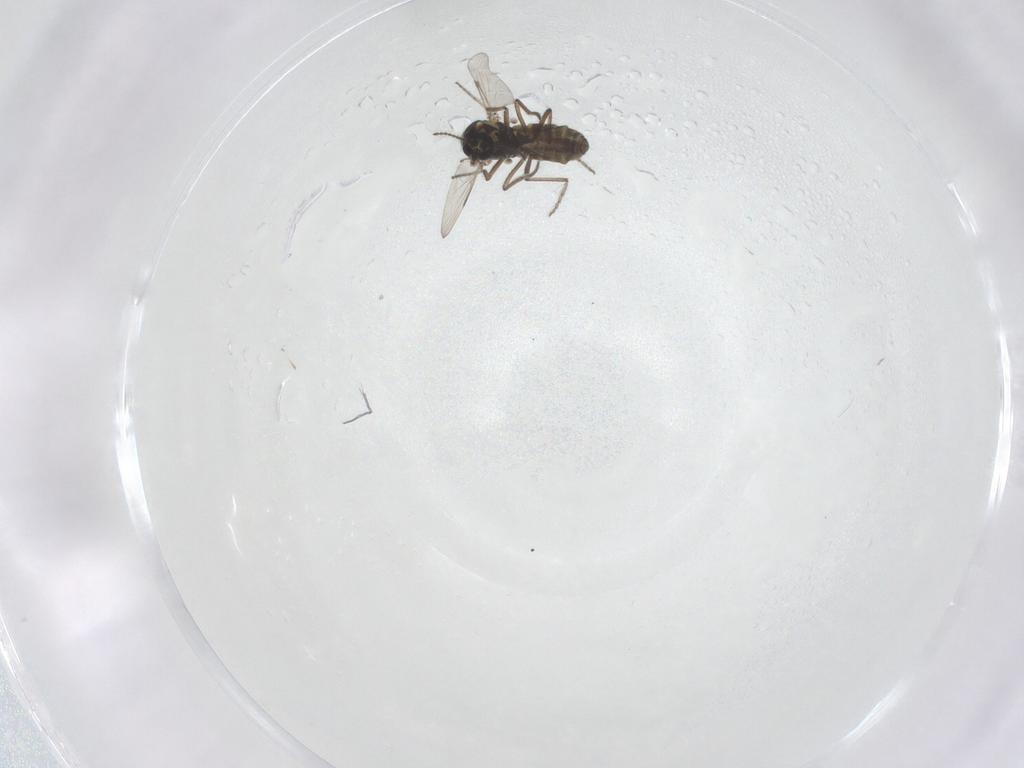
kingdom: Animalia
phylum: Arthropoda
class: Insecta
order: Diptera
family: Ceratopogonidae
